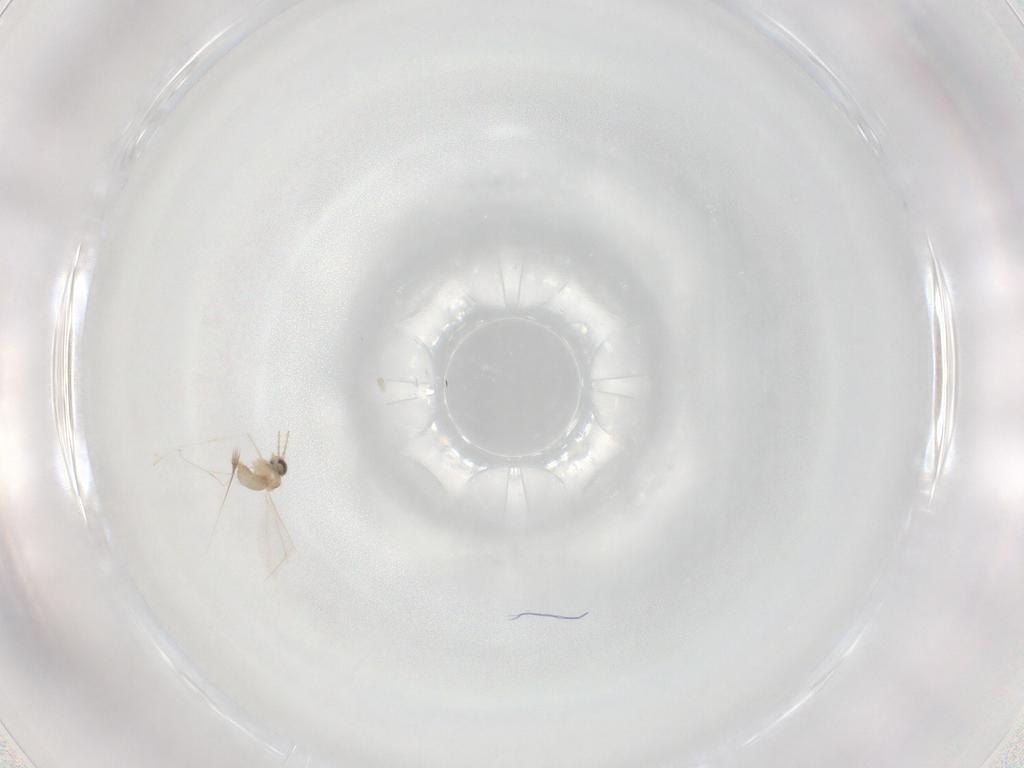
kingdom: Animalia
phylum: Arthropoda
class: Insecta
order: Diptera
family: Cecidomyiidae
